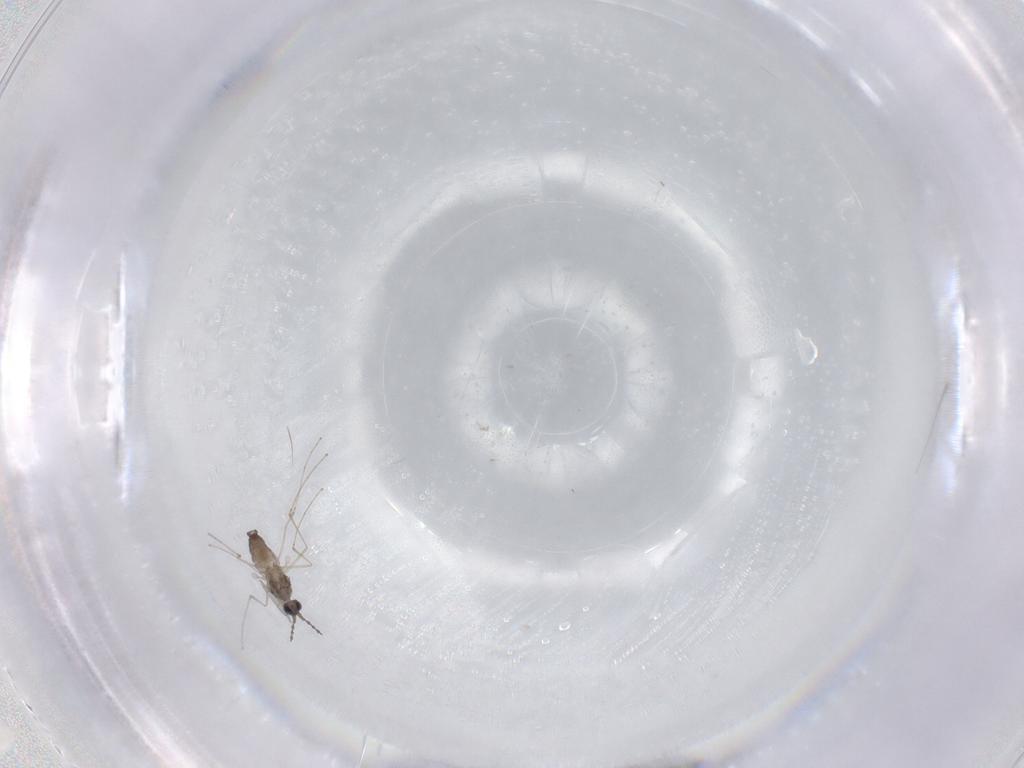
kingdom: Animalia
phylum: Arthropoda
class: Insecta
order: Diptera
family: Cecidomyiidae
